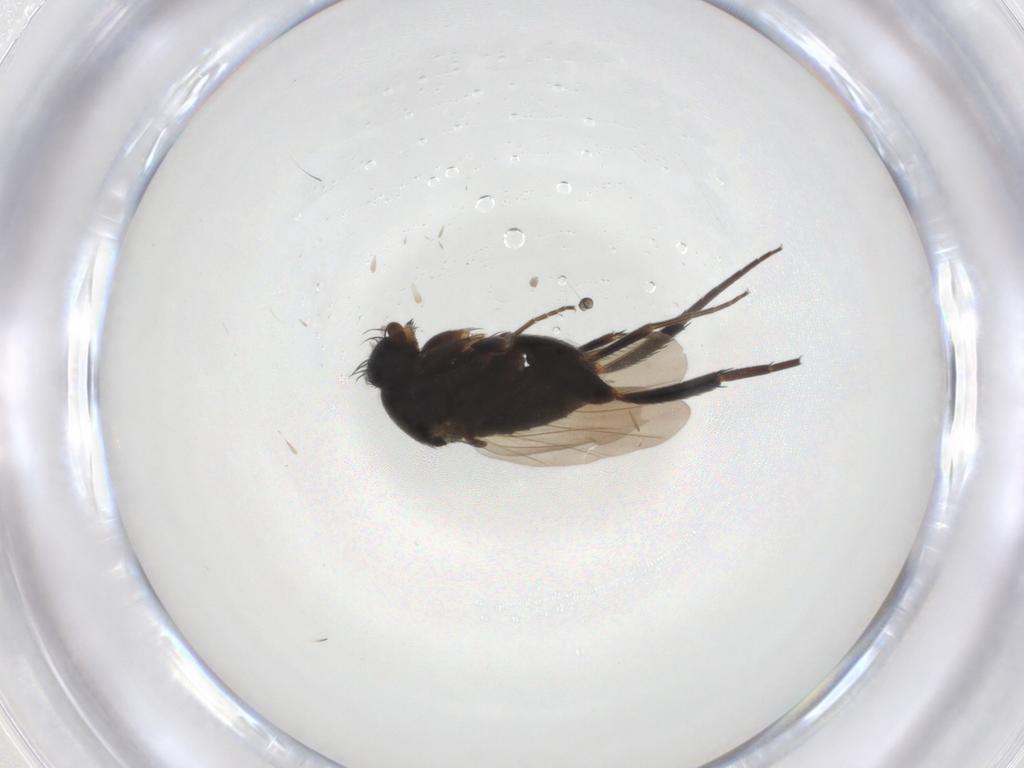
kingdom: Animalia
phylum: Arthropoda
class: Insecta
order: Diptera
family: Phoridae
